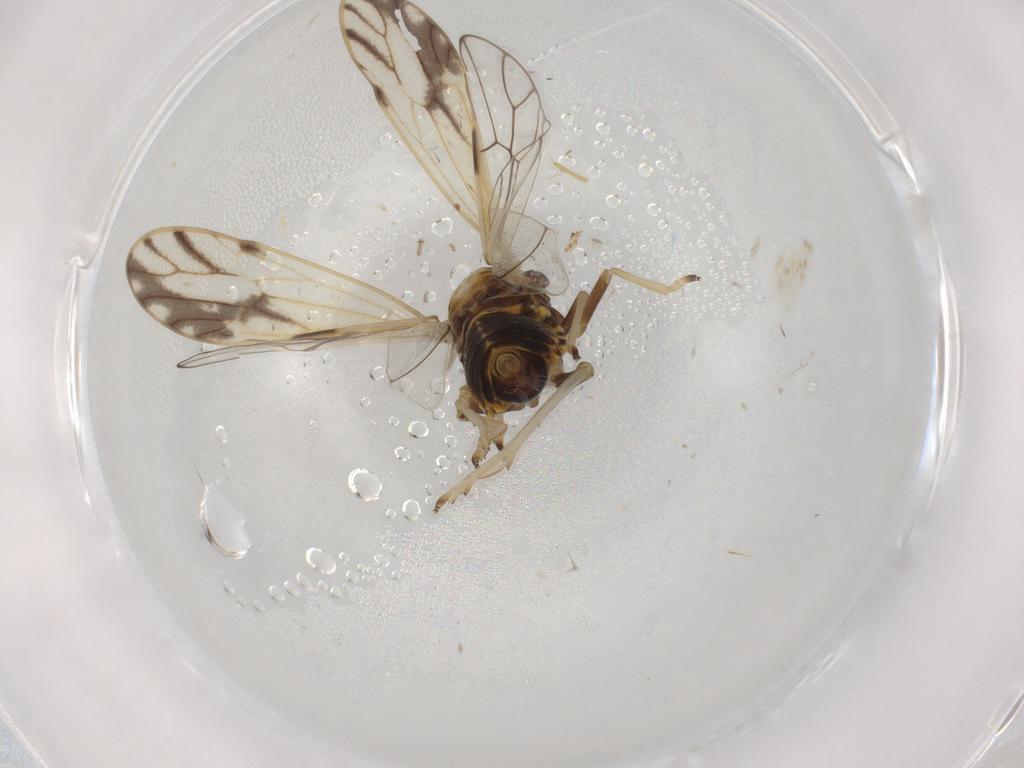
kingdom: Animalia
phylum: Arthropoda
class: Insecta
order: Hemiptera
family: Delphacidae
